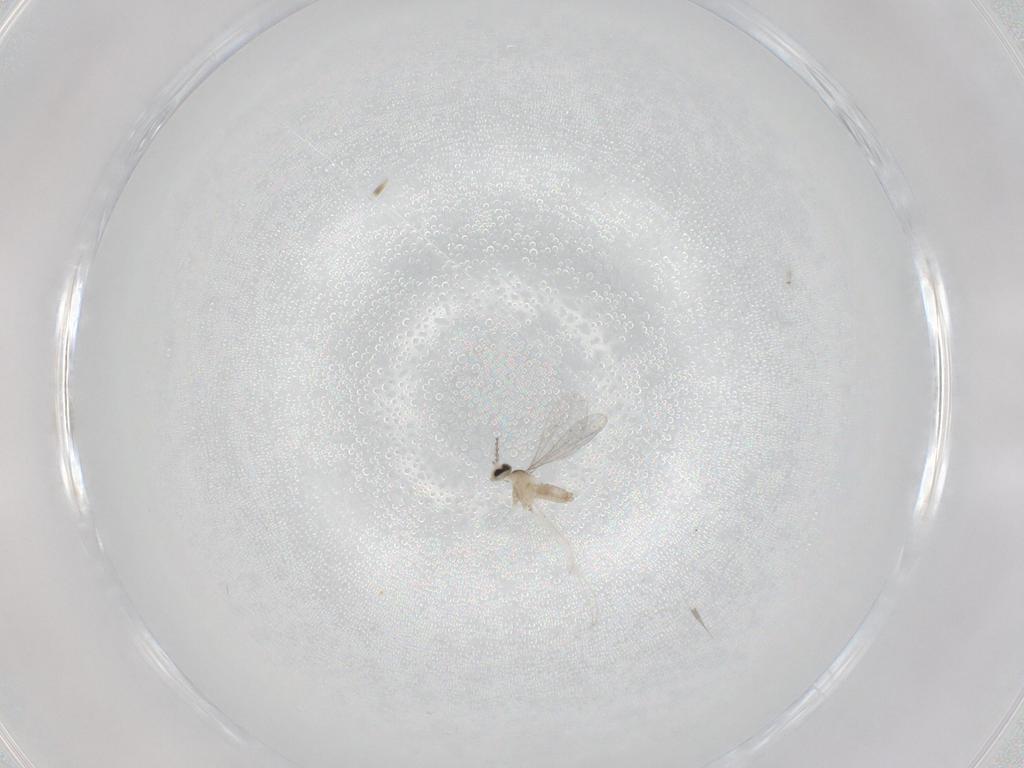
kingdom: Animalia
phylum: Arthropoda
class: Insecta
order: Diptera
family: Cecidomyiidae
